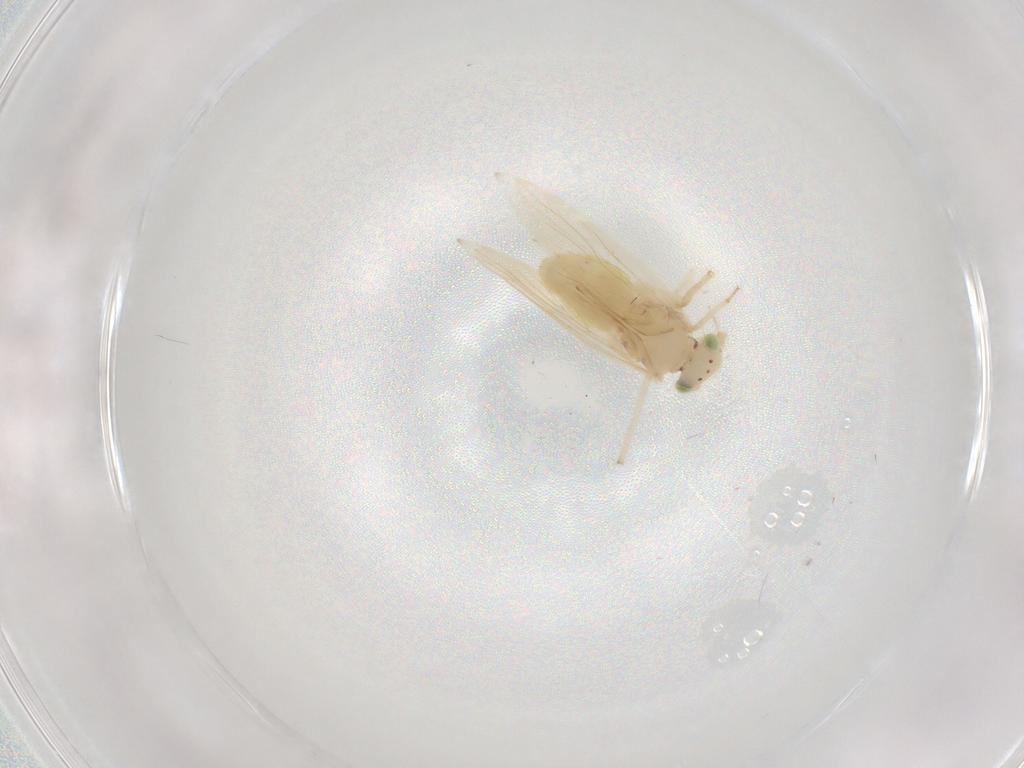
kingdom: Animalia
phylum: Arthropoda
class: Insecta
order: Psocodea
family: Lepidopsocidae
